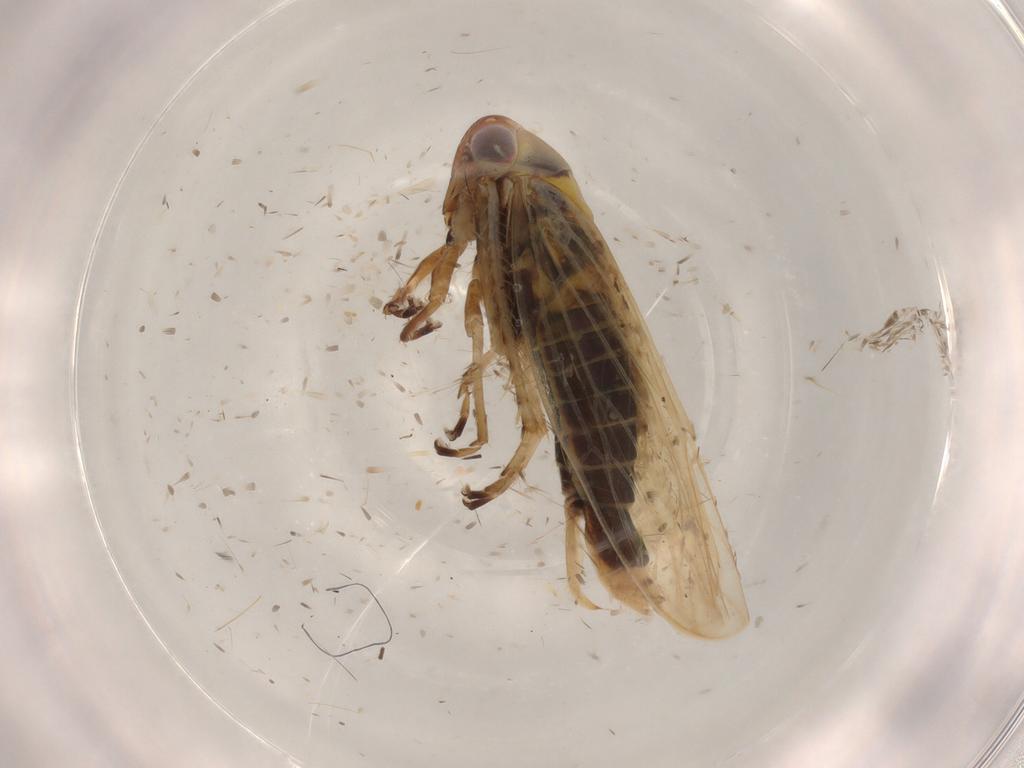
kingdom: Animalia
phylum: Arthropoda
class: Insecta
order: Hemiptera
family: Cicadellidae
